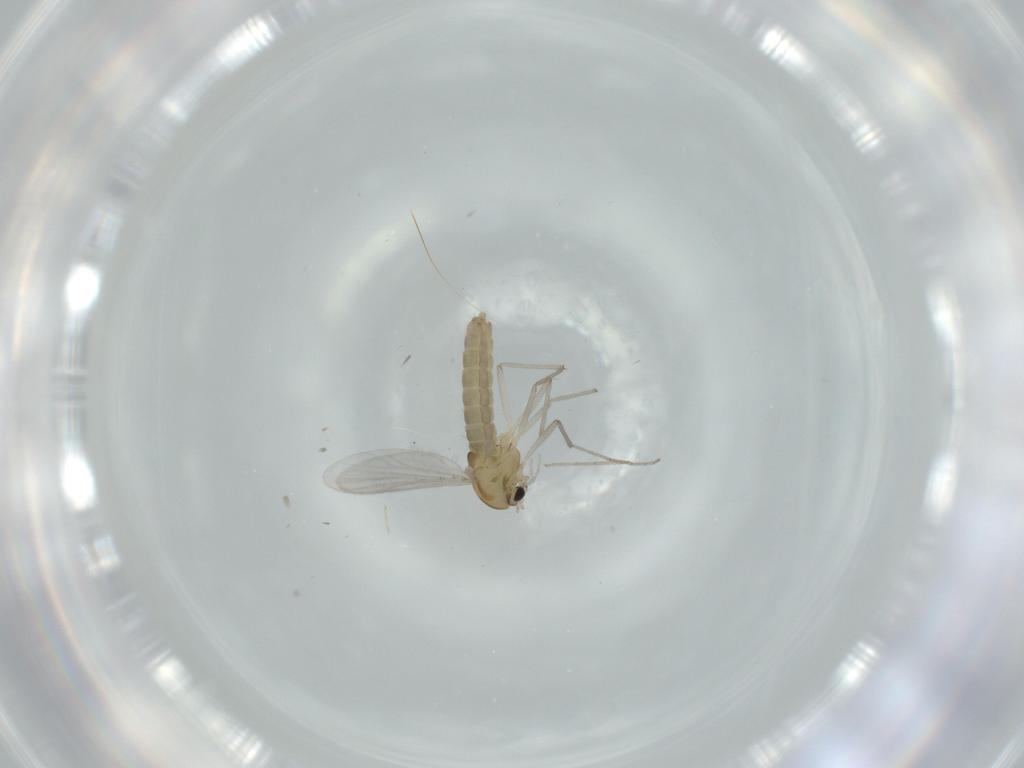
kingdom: Animalia
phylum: Arthropoda
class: Insecta
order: Diptera
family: Chironomidae
